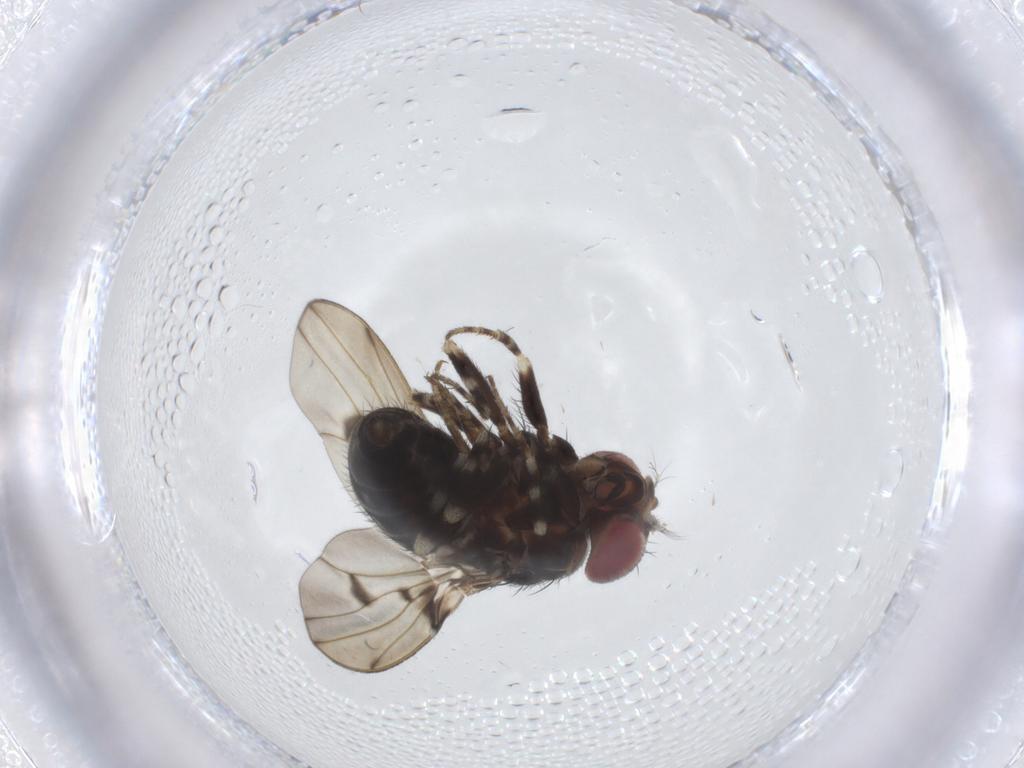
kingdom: Animalia
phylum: Arthropoda
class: Insecta
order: Diptera
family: Drosophilidae
